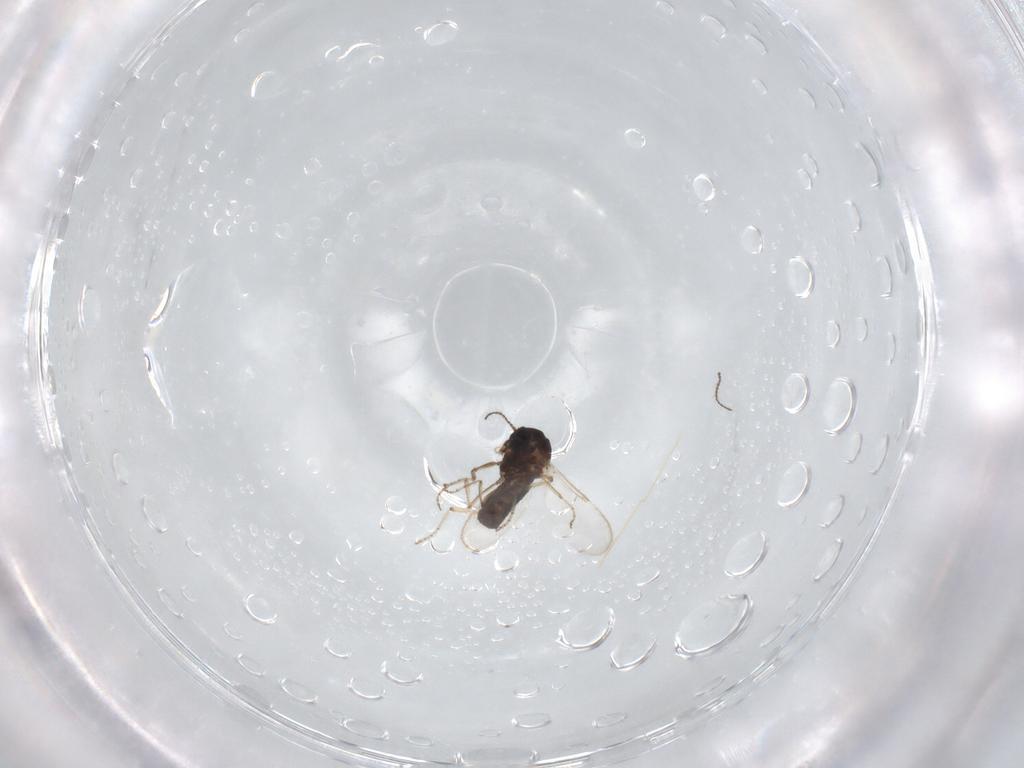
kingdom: Animalia
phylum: Arthropoda
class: Insecta
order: Diptera
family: Ceratopogonidae
